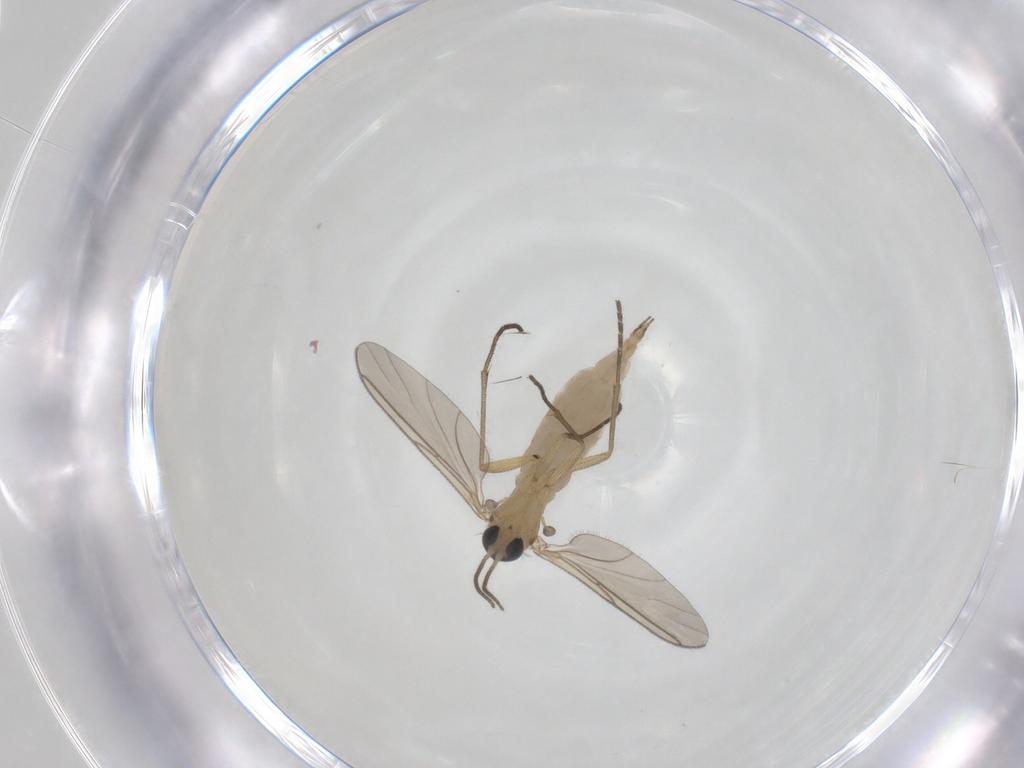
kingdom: Animalia
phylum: Arthropoda
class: Insecta
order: Diptera
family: Sciaridae
